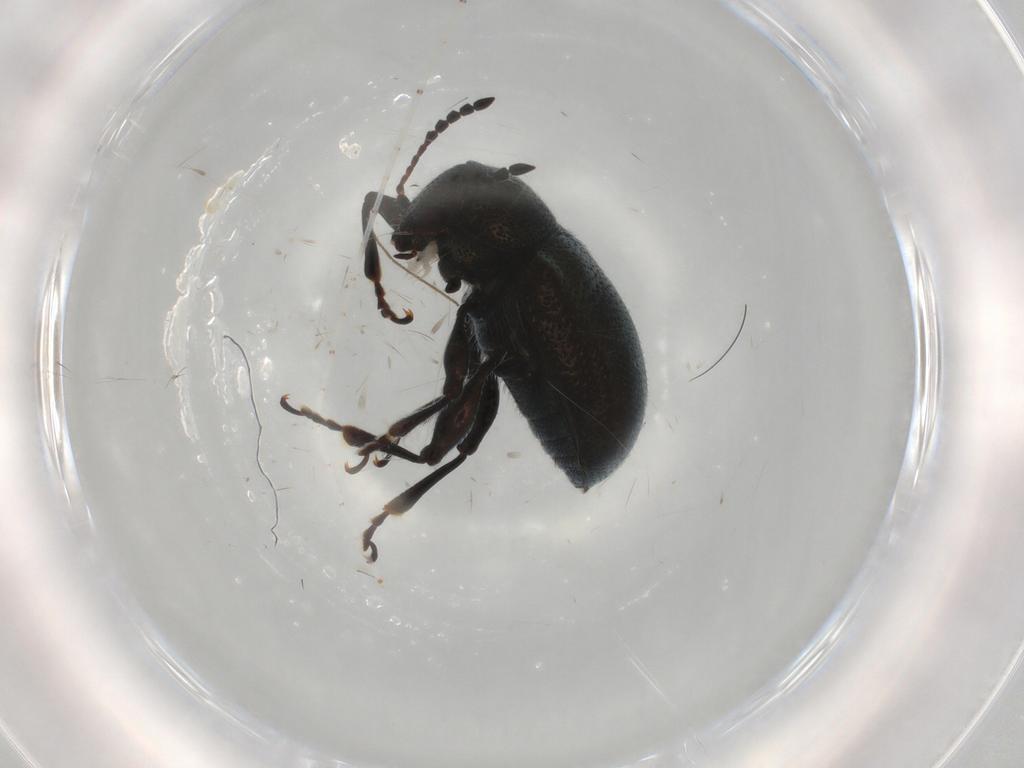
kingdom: Animalia
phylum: Arthropoda
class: Insecta
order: Coleoptera
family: Chrysomelidae
